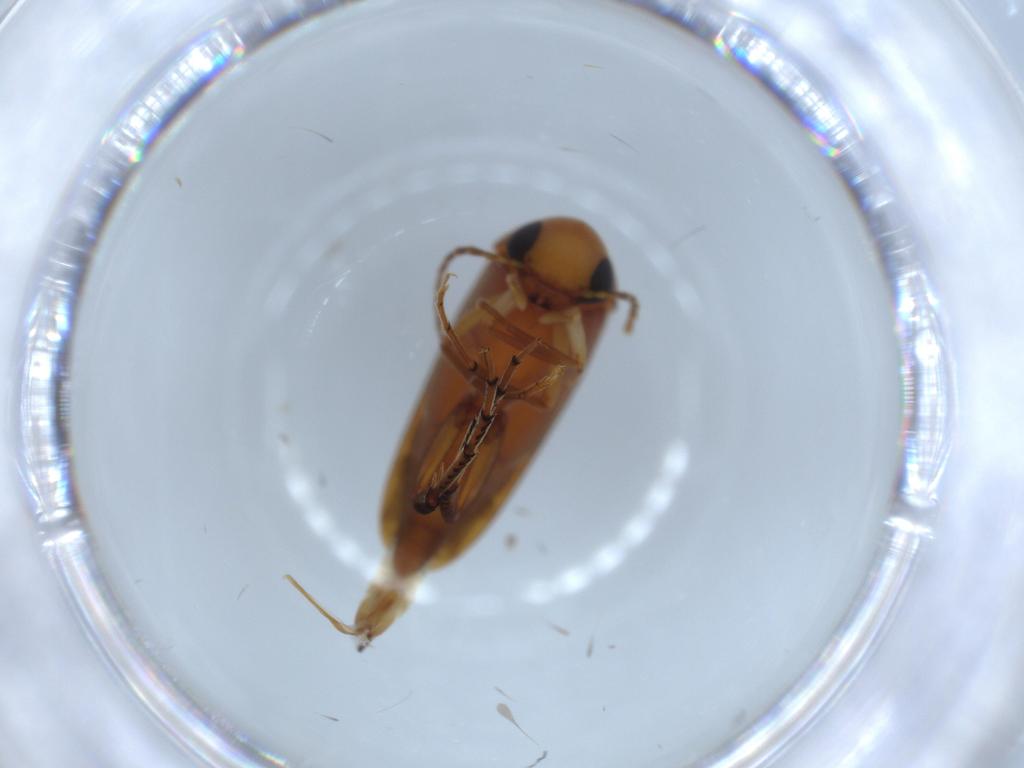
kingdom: Animalia
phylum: Arthropoda
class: Insecta
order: Coleoptera
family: Mordellidae
